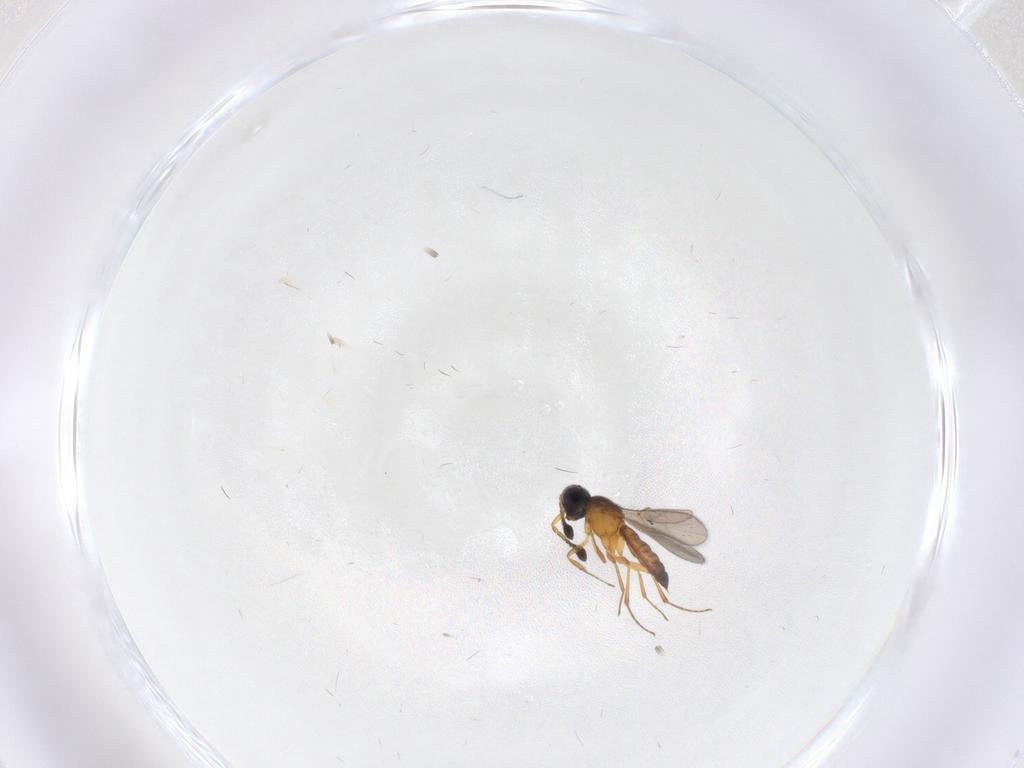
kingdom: Animalia
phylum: Arthropoda
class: Insecta
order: Hymenoptera
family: Scelionidae
